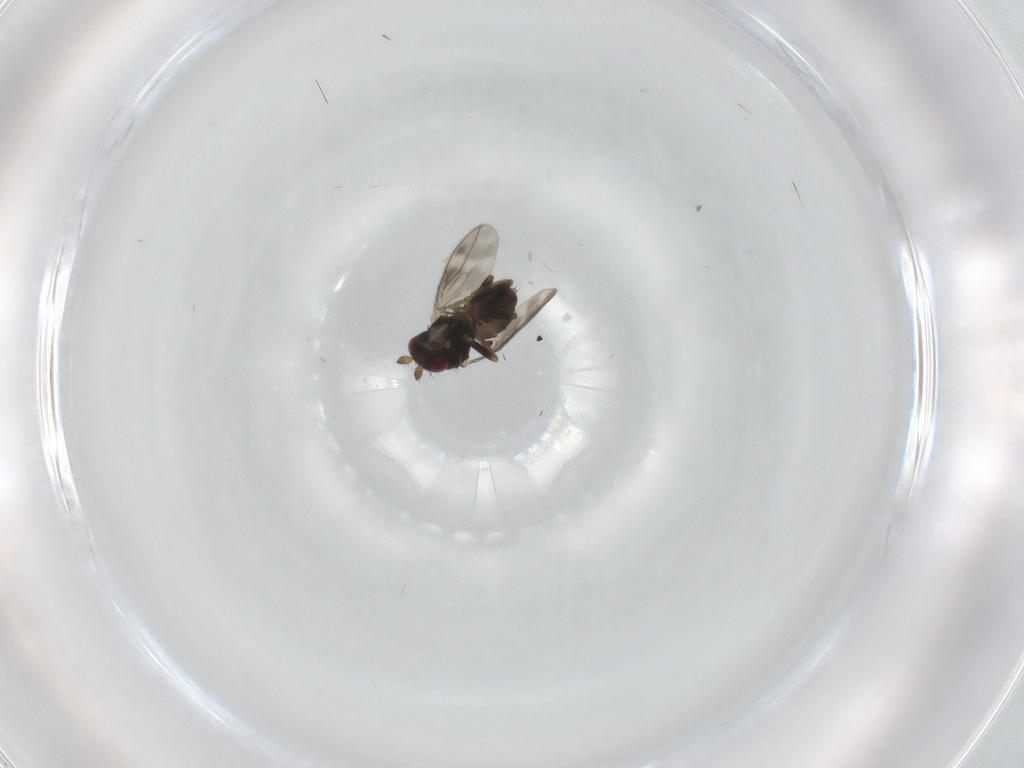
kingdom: Animalia
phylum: Arthropoda
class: Insecta
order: Diptera
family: Sphaeroceridae
